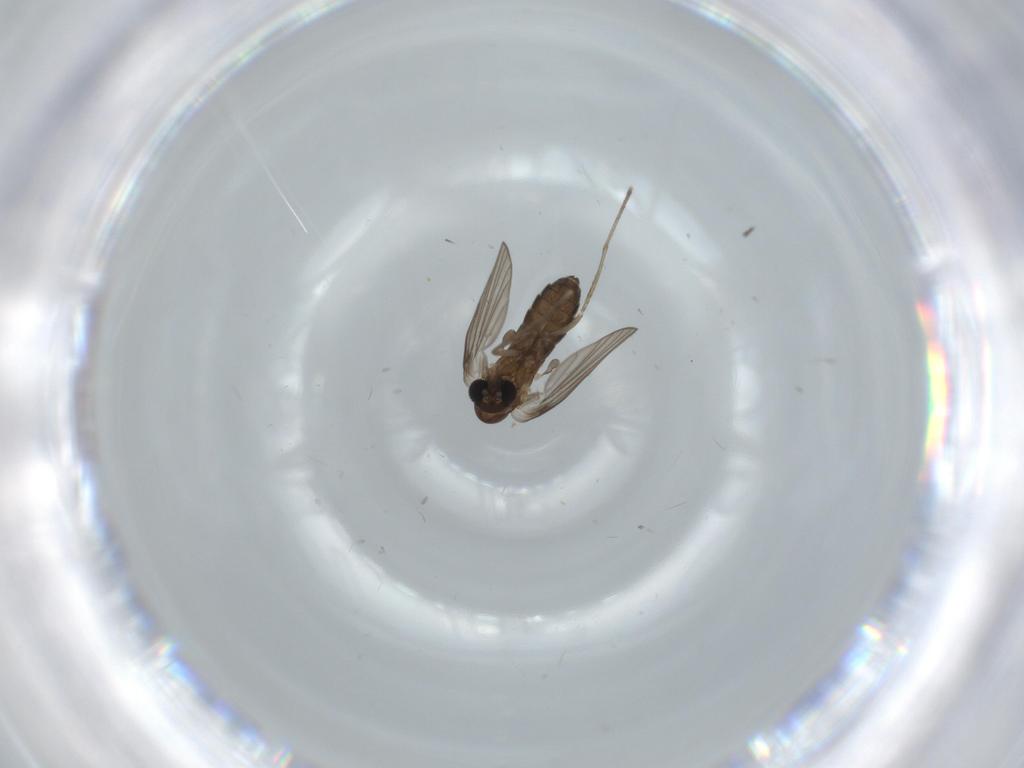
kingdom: Animalia
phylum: Arthropoda
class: Insecta
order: Diptera
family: Psychodidae
